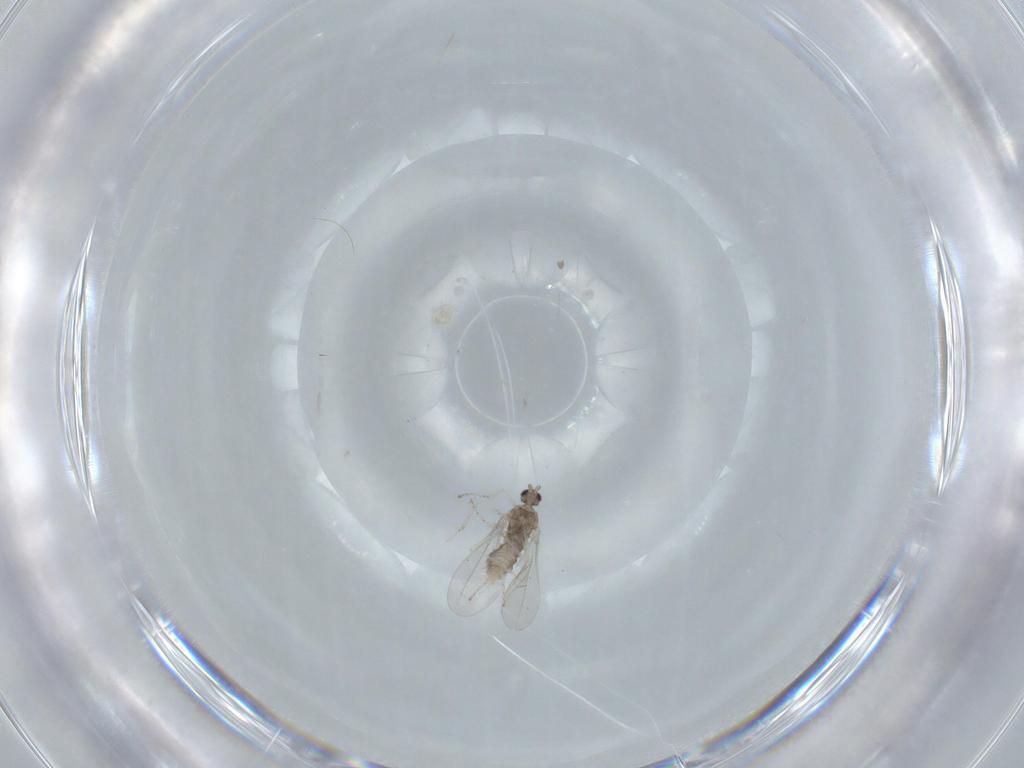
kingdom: Animalia
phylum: Arthropoda
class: Insecta
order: Diptera
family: Cecidomyiidae
